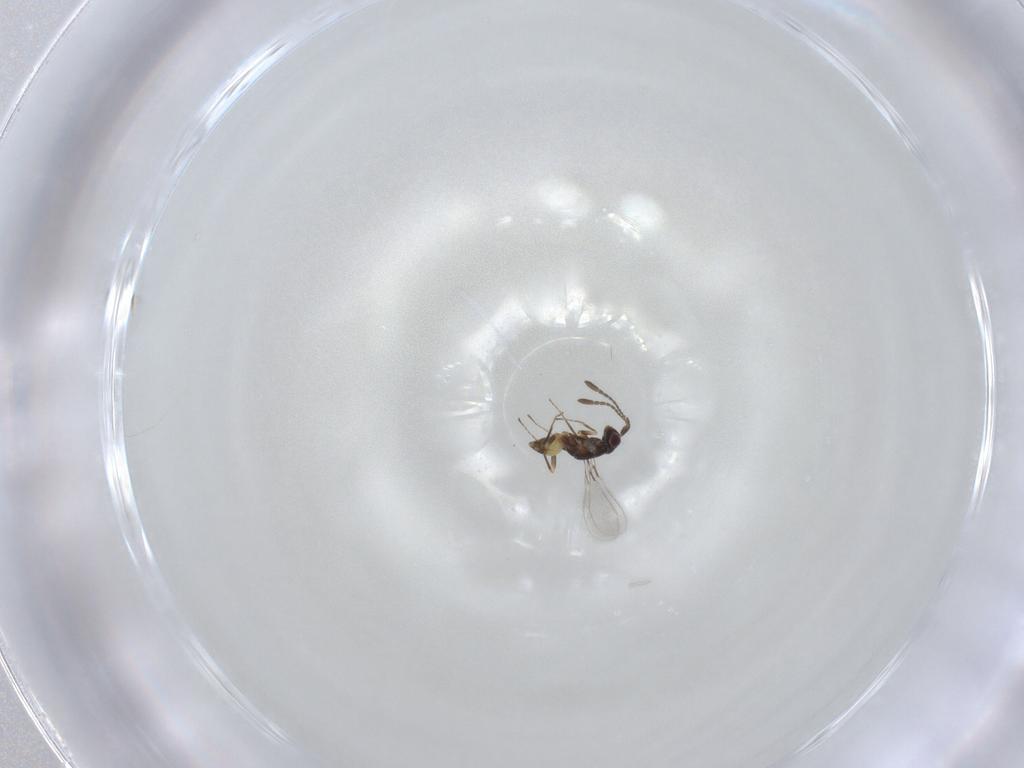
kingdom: Animalia
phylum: Arthropoda
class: Insecta
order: Hymenoptera
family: Mymaridae
